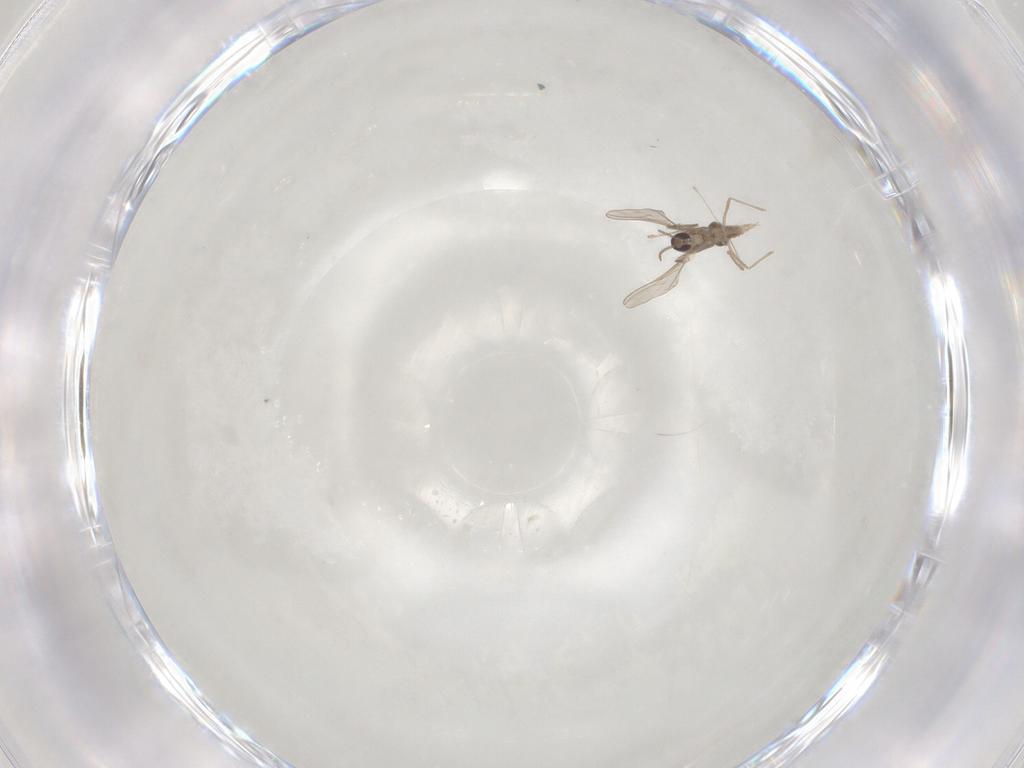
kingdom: Animalia
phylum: Arthropoda
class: Insecta
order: Diptera
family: Cecidomyiidae
